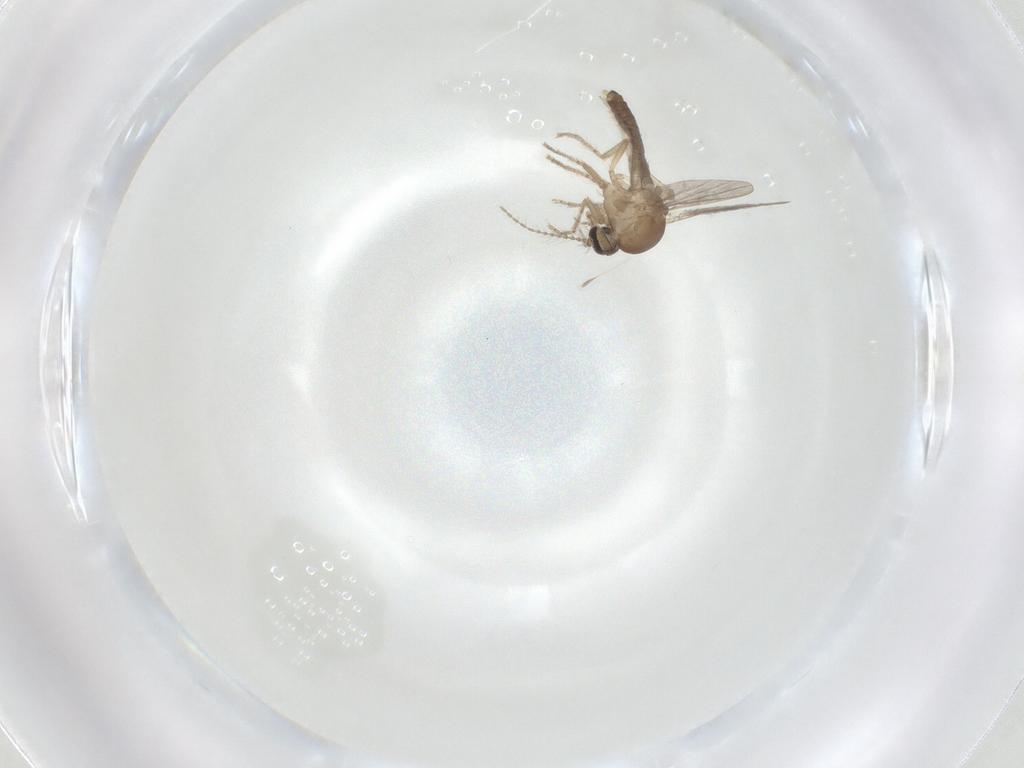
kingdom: Animalia
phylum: Arthropoda
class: Insecta
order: Diptera
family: Ceratopogonidae
